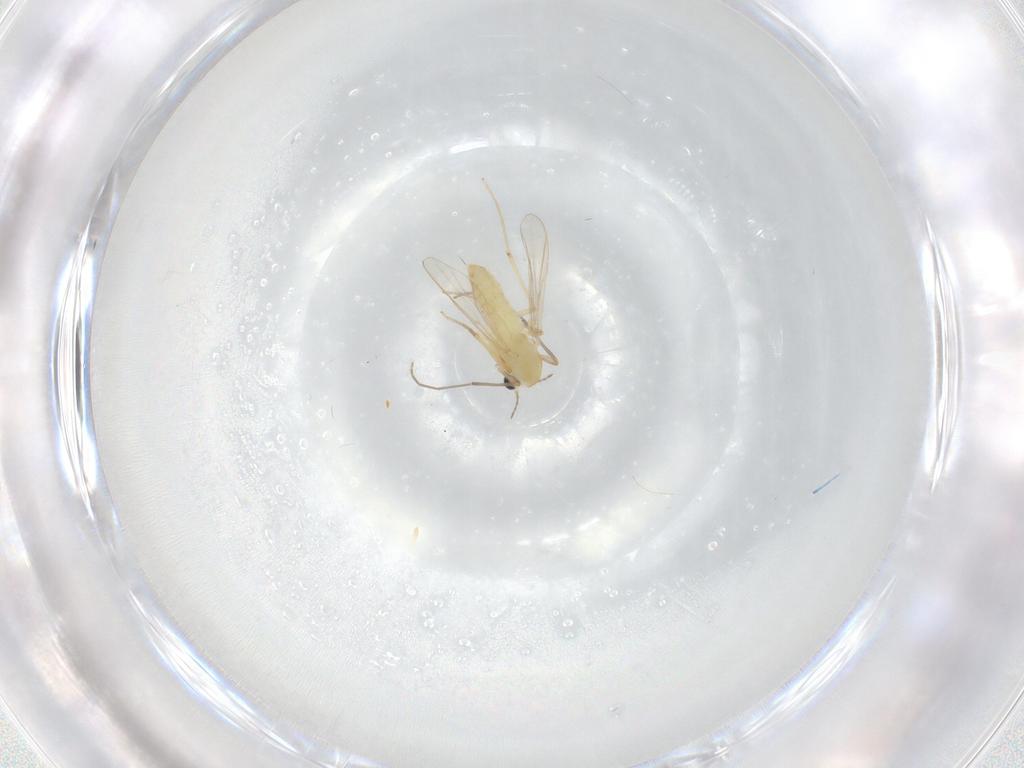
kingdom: Animalia
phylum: Arthropoda
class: Insecta
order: Diptera
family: Chironomidae
